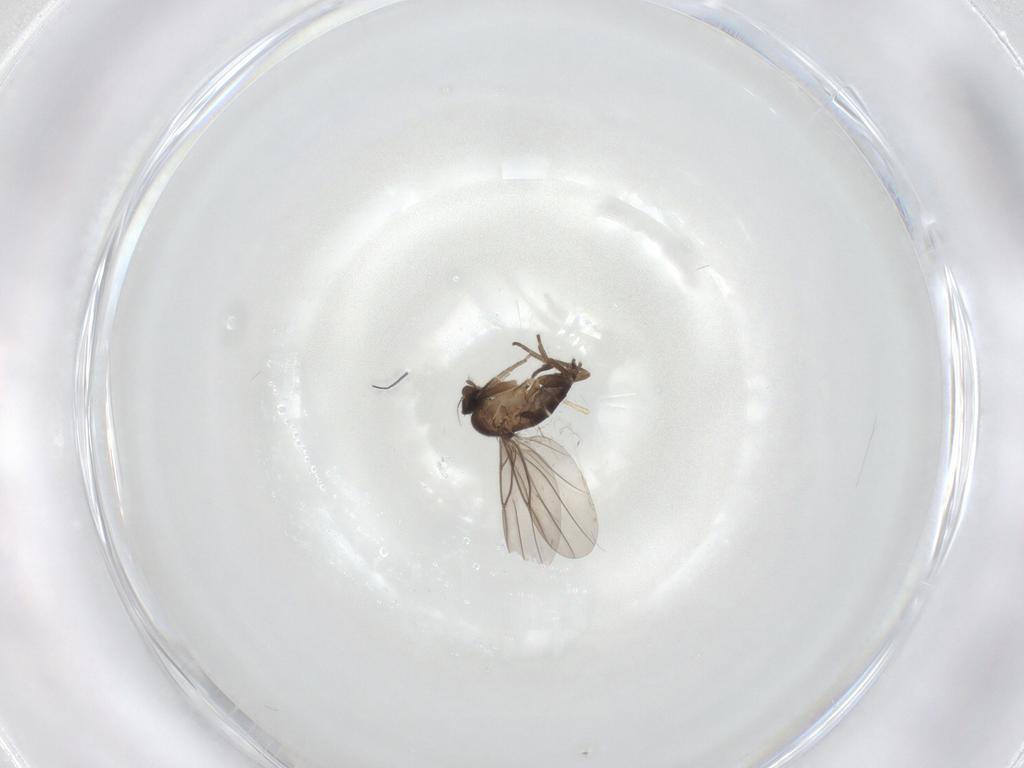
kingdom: Animalia
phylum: Arthropoda
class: Insecta
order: Diptera
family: Phoridae
